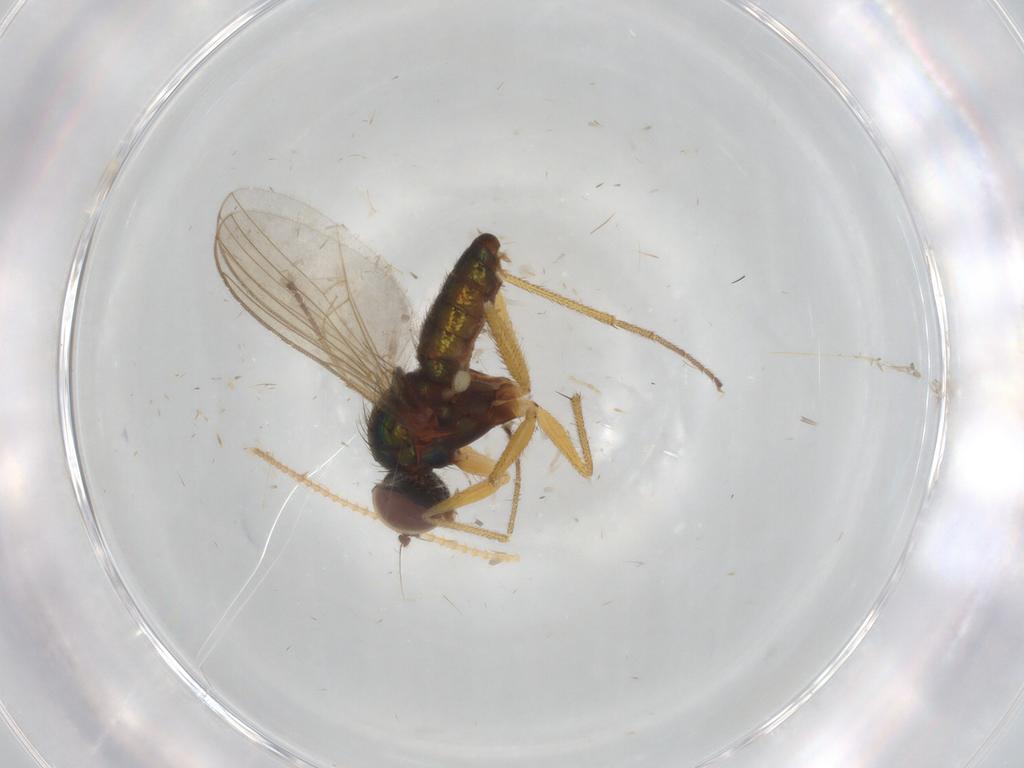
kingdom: Animalia
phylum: Arthropoda
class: Insecta
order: Diptera
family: Chironomidae
